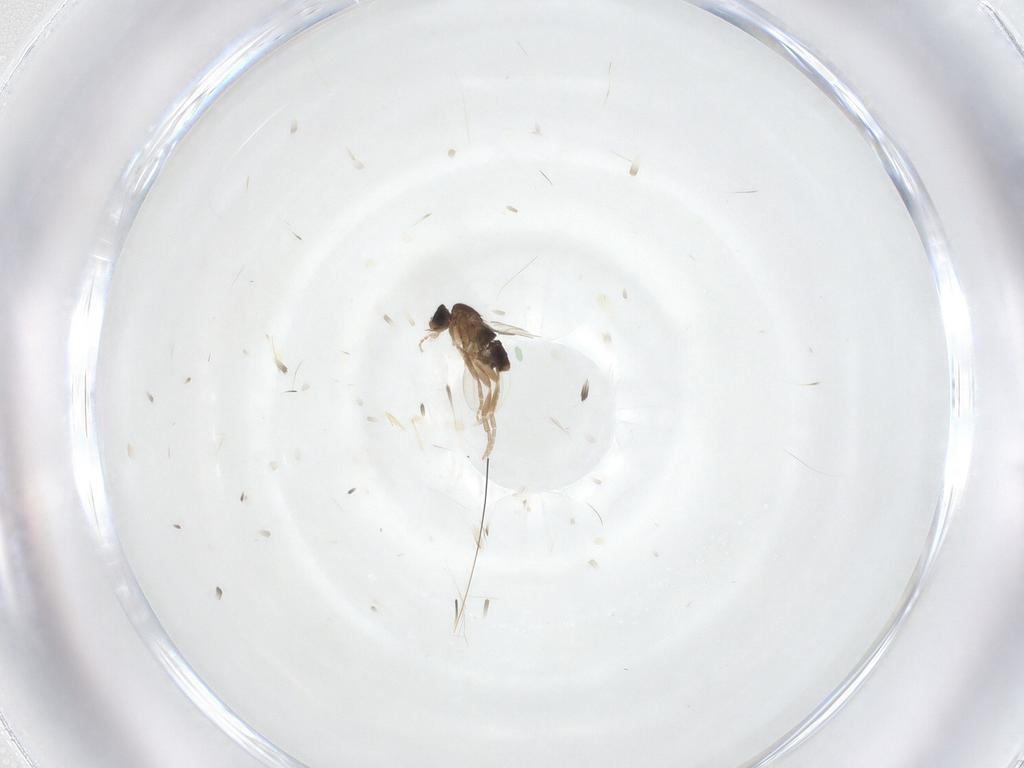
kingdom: Animalia
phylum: Arthropoda
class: Insecta
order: Diptera
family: Phoridae
